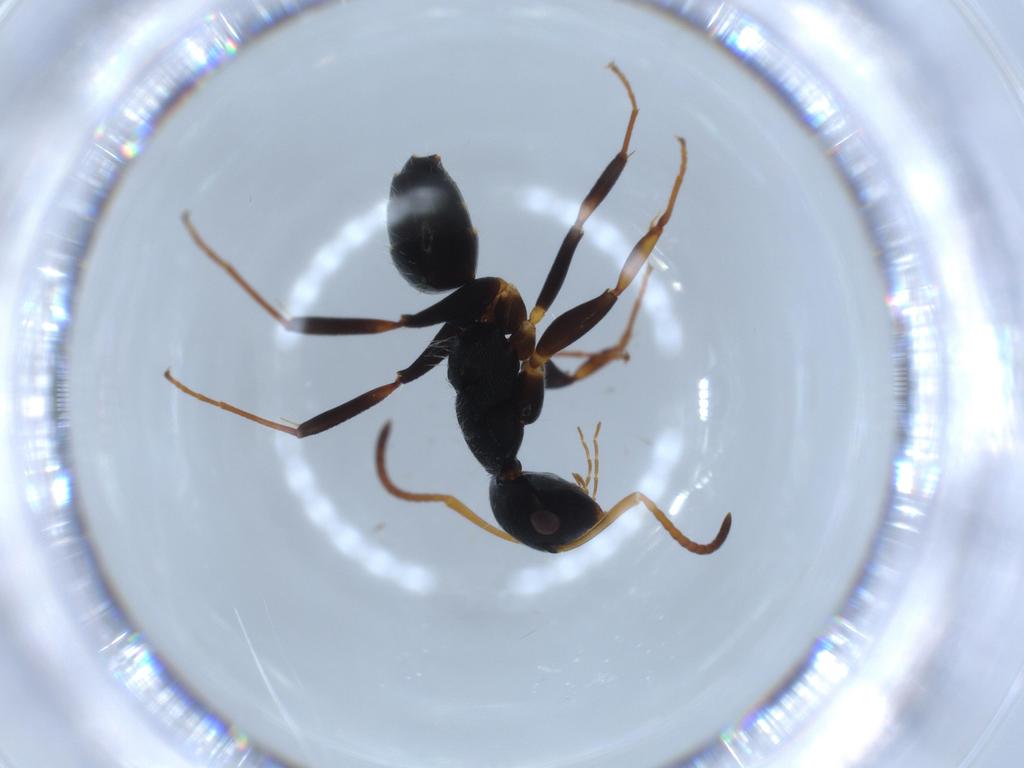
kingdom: Animalia
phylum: Arthropoda
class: Insecta
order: Hymenoptera
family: Formicidae
